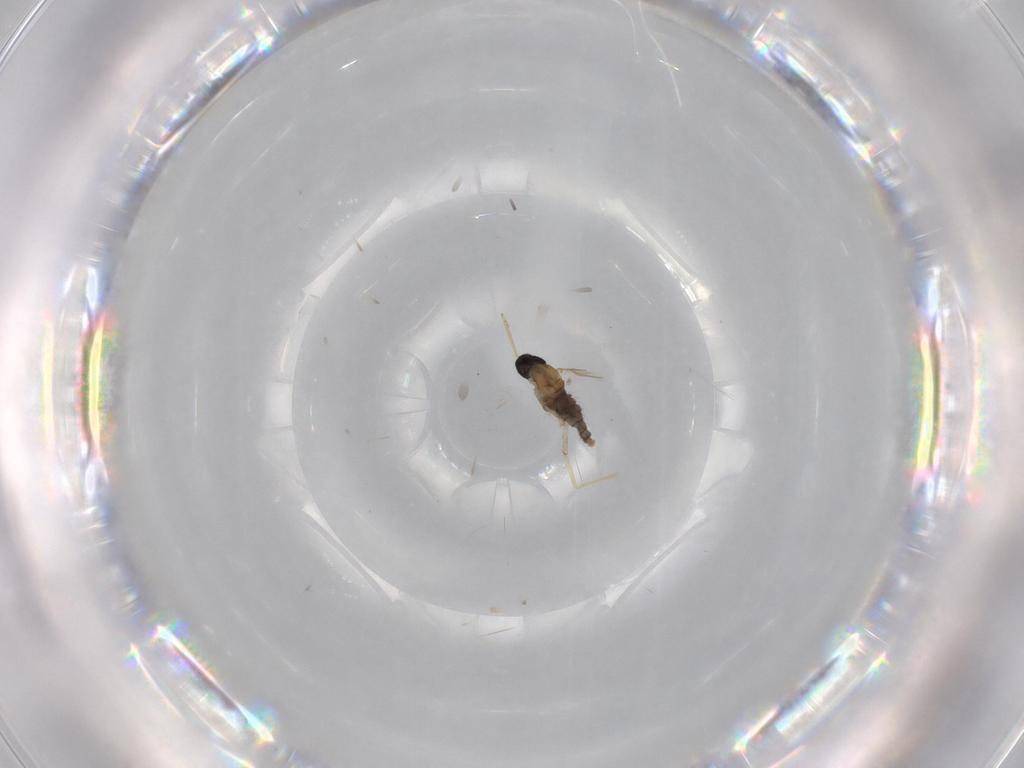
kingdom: Animalia
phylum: Arthropoda
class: Insecta
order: Diptera
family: Cecidomyiidae
